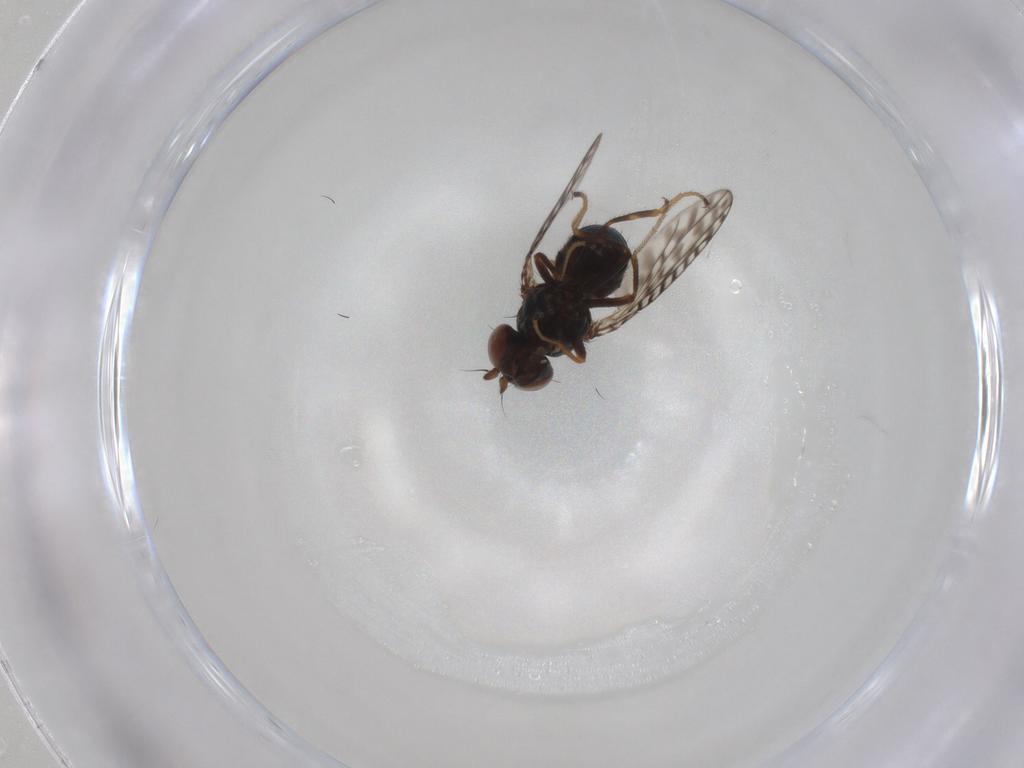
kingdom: Animalia
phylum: Arthropoda
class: Insecta
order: Diptera
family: Ephydridae
